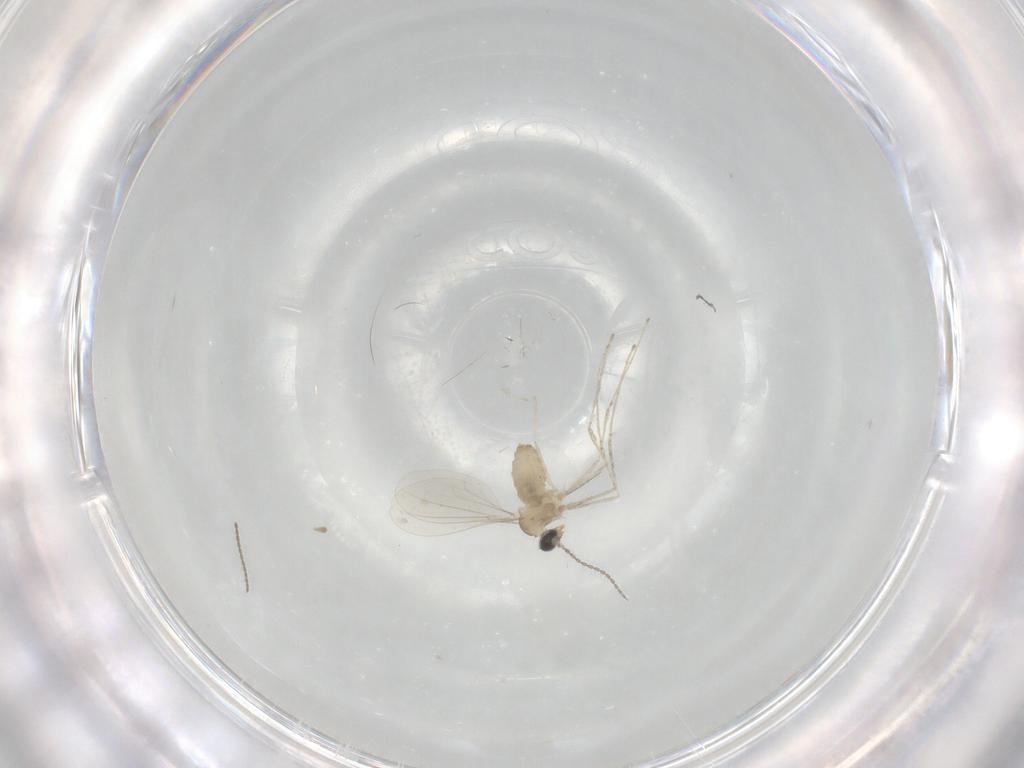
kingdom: Animalia
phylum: Arthropoda
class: Insecta
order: Diptera
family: Cecidomyiidae
